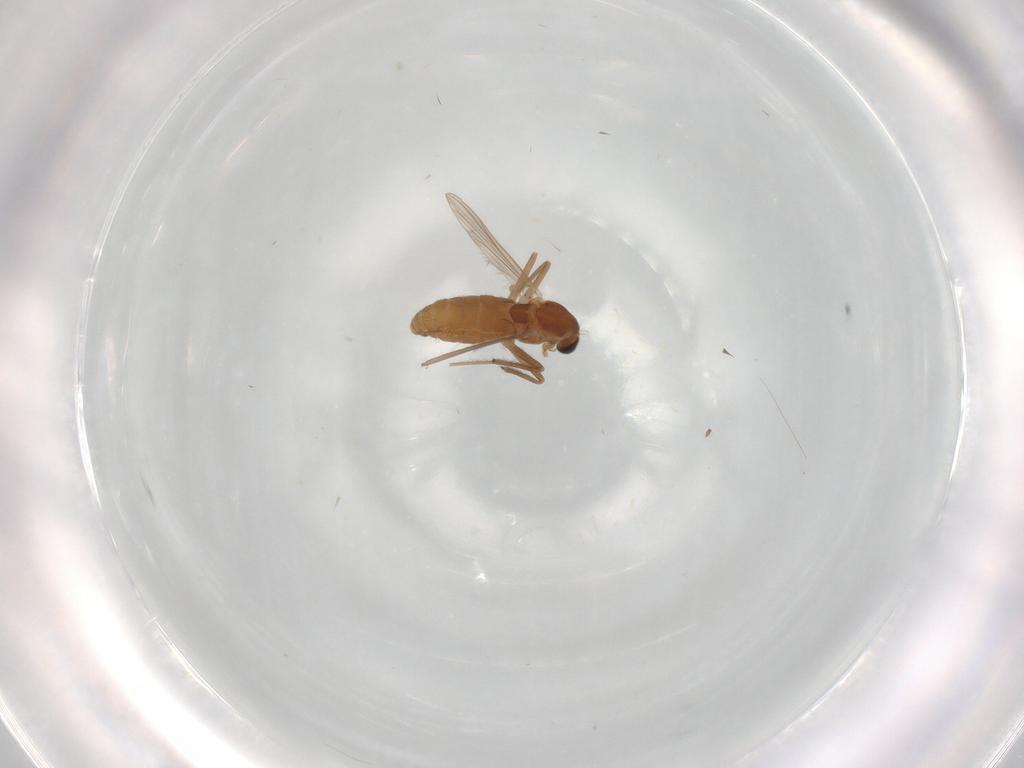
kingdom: Animalia
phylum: Arthropoda
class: Insecta
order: Diptera
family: Chironomidae
